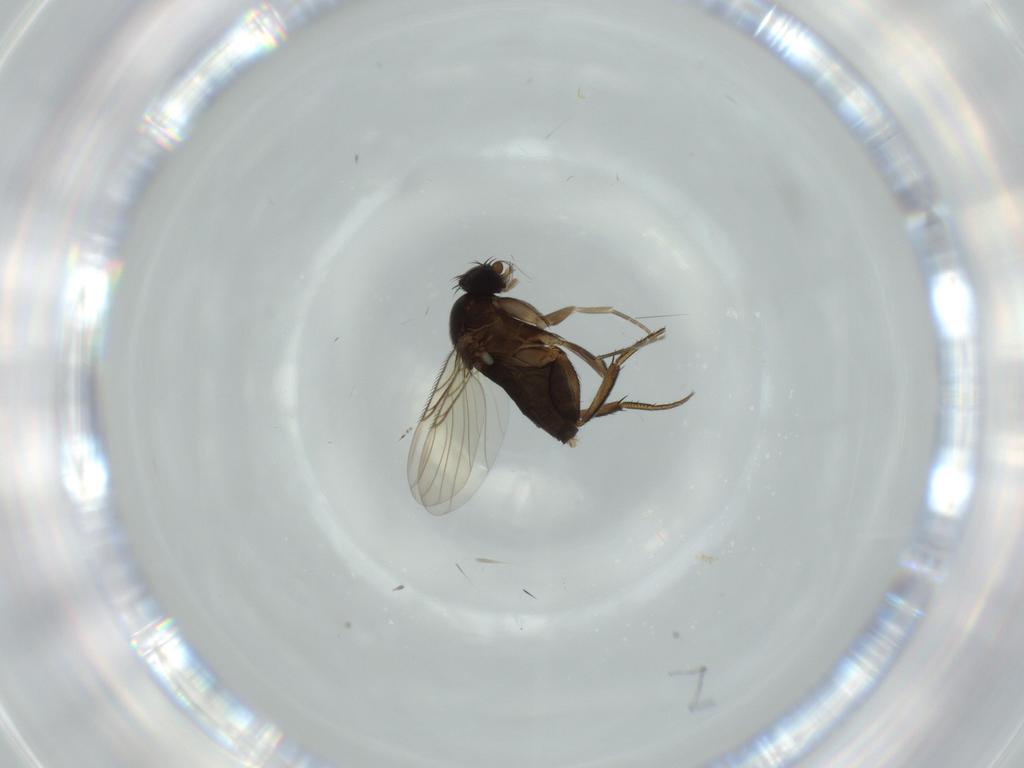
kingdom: Animalia
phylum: Arthropoda
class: Insecta
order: Diptera
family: Phoridae
